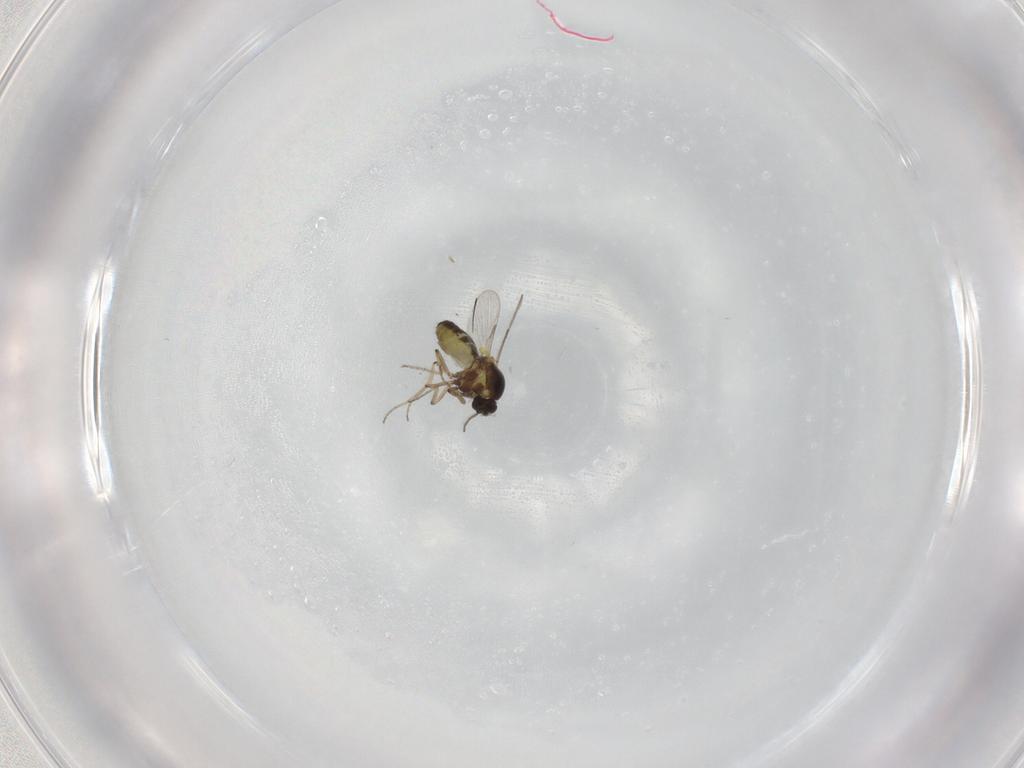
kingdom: Animalia
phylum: Arthropoda
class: Insecta
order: Diptera
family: Ceratopogonidae
